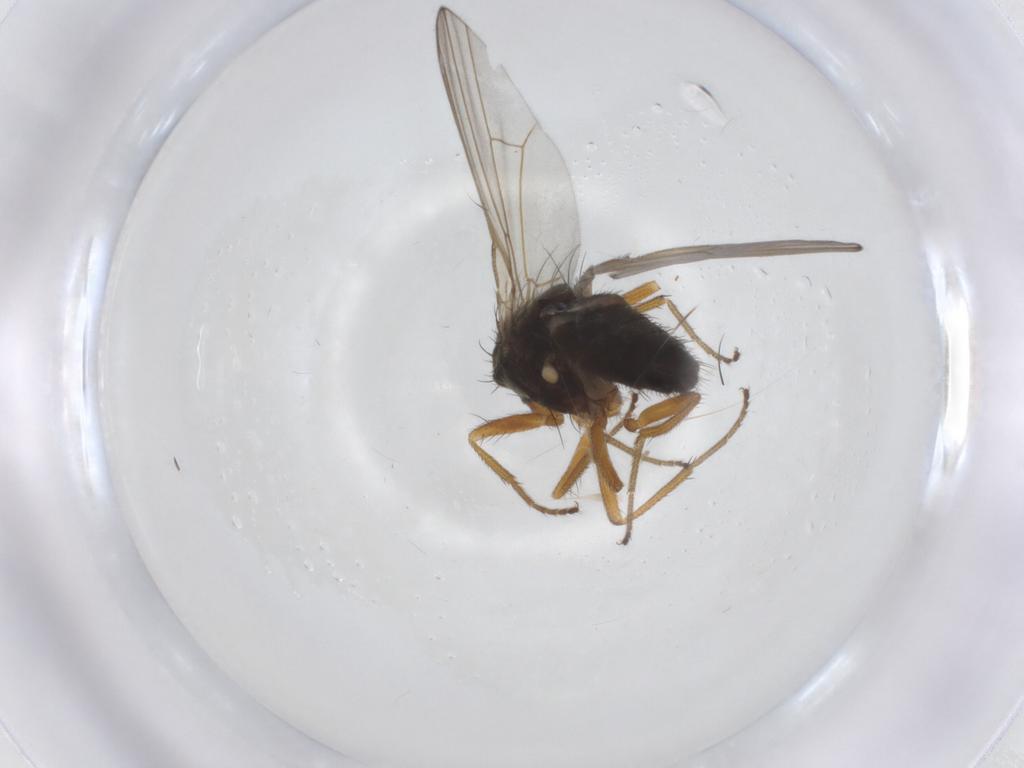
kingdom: Animalia
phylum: Arthropoda
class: Insecta
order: Diptera
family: Drosophilidae
